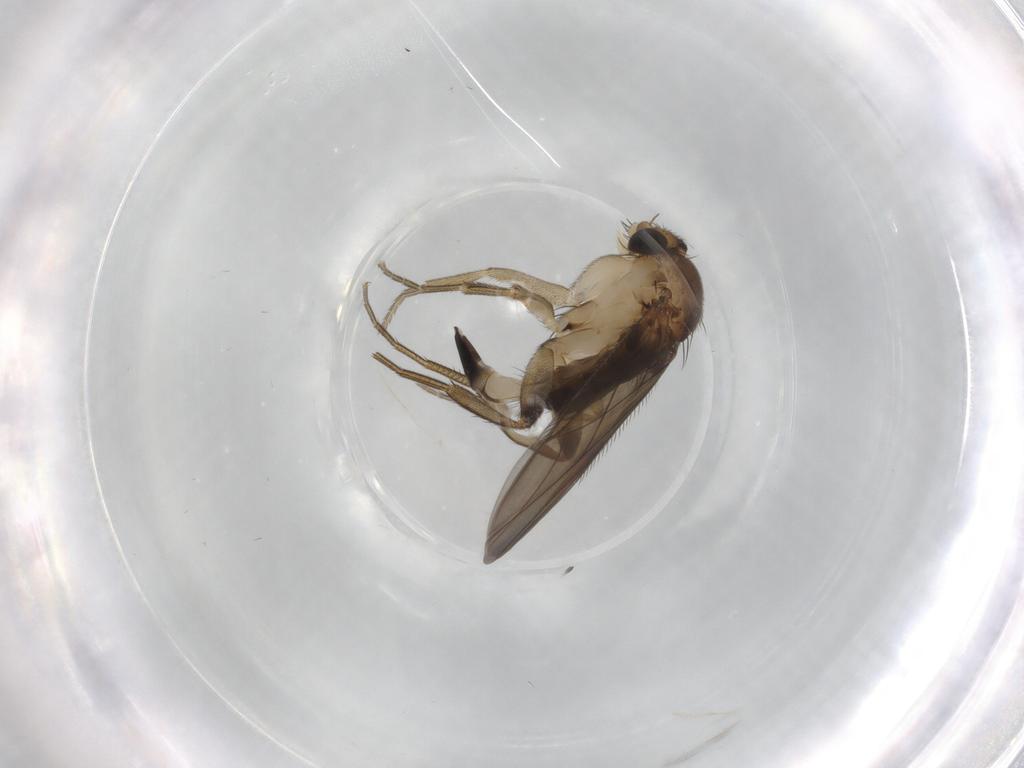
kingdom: Animalia
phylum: Arthropoda
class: Insecta
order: Diptera
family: Phoridae
